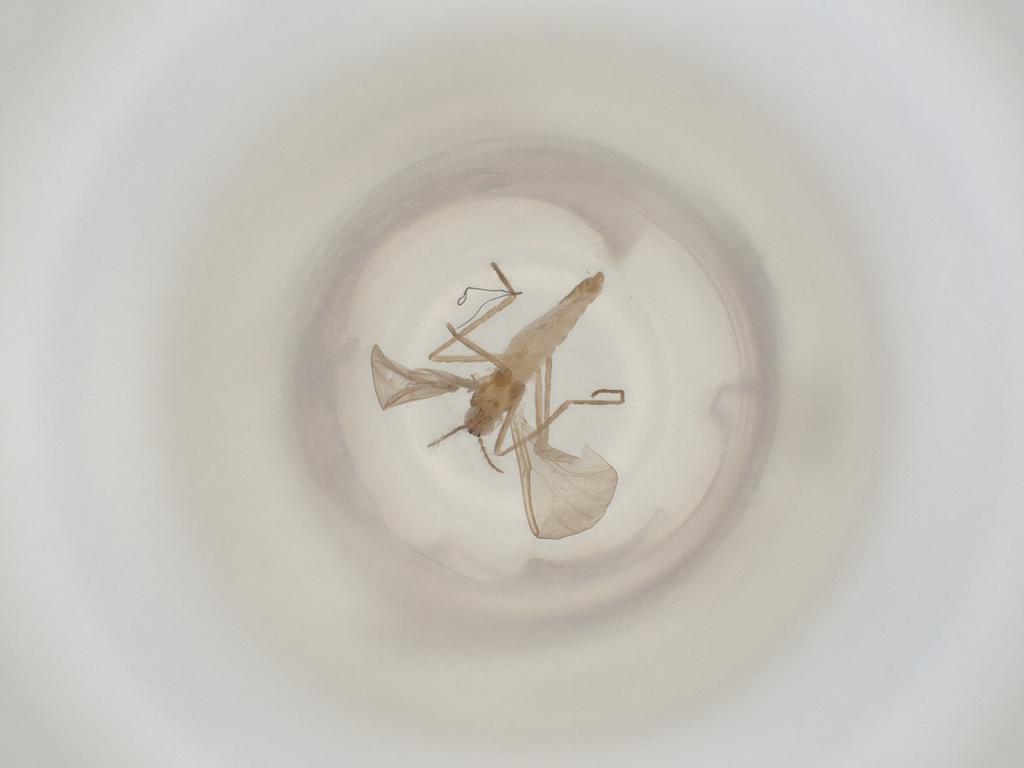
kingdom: Animalia
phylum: Arthropoda
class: Insecta
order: Diptera
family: Cecidomyiidae
